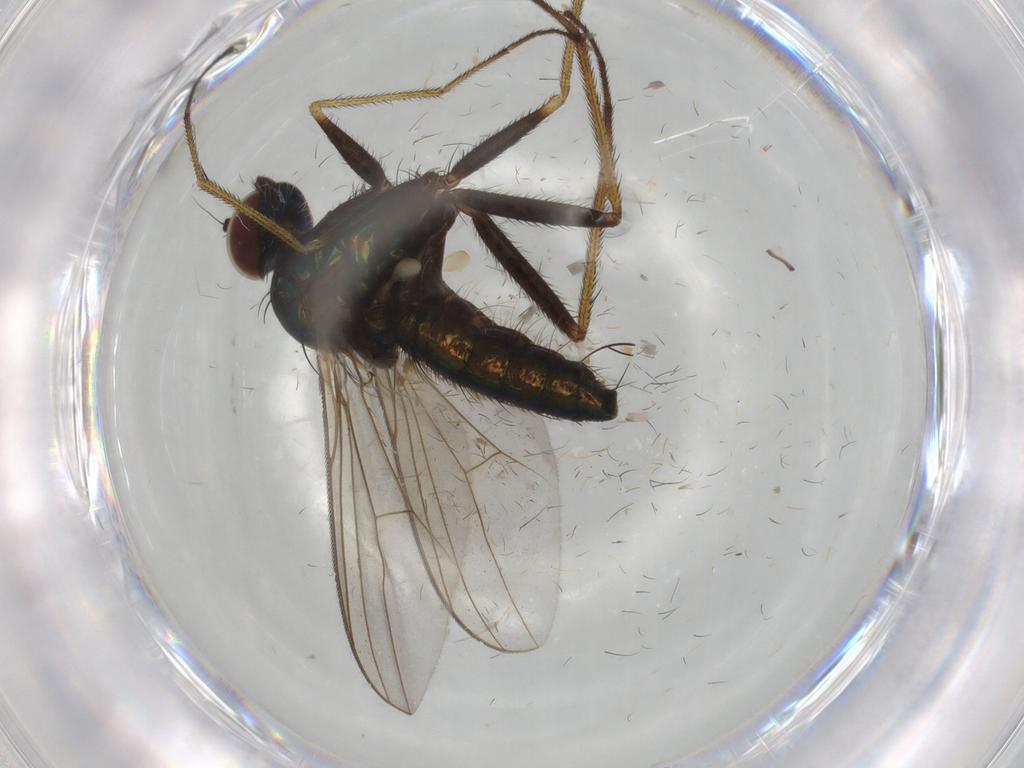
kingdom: Animalia
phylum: Arthropoda
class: Insecta
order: Diptera
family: Dolichopodidae
